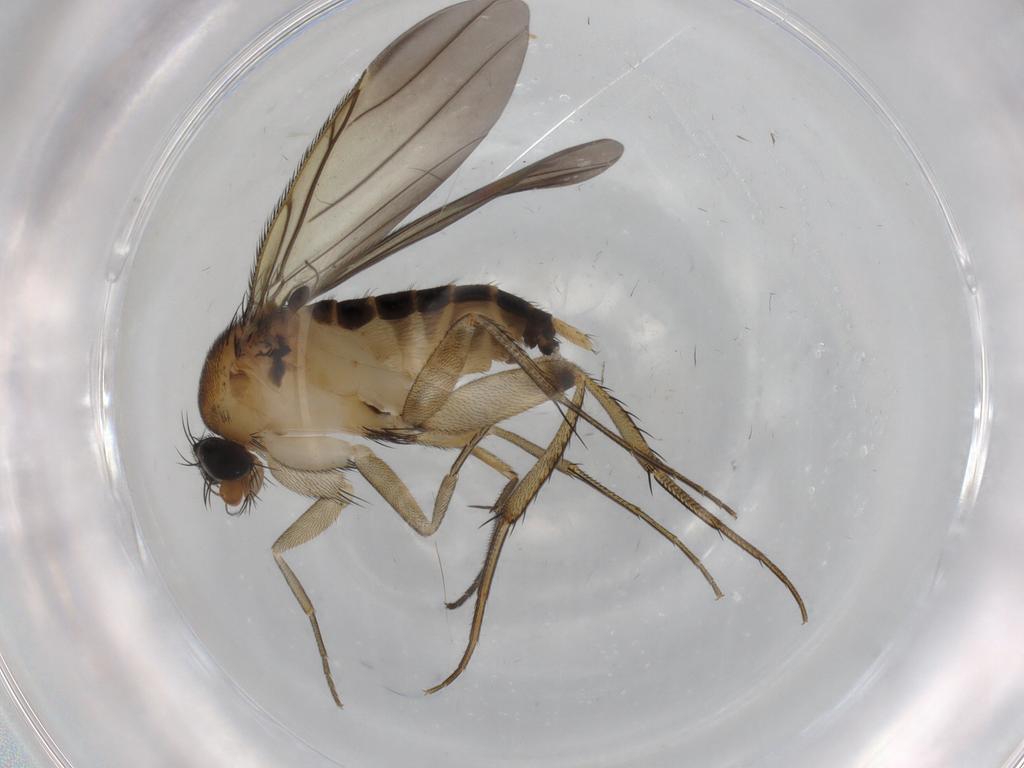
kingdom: Animalia
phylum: Arthropoda
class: Insecta
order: Diptera
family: Phoridae
